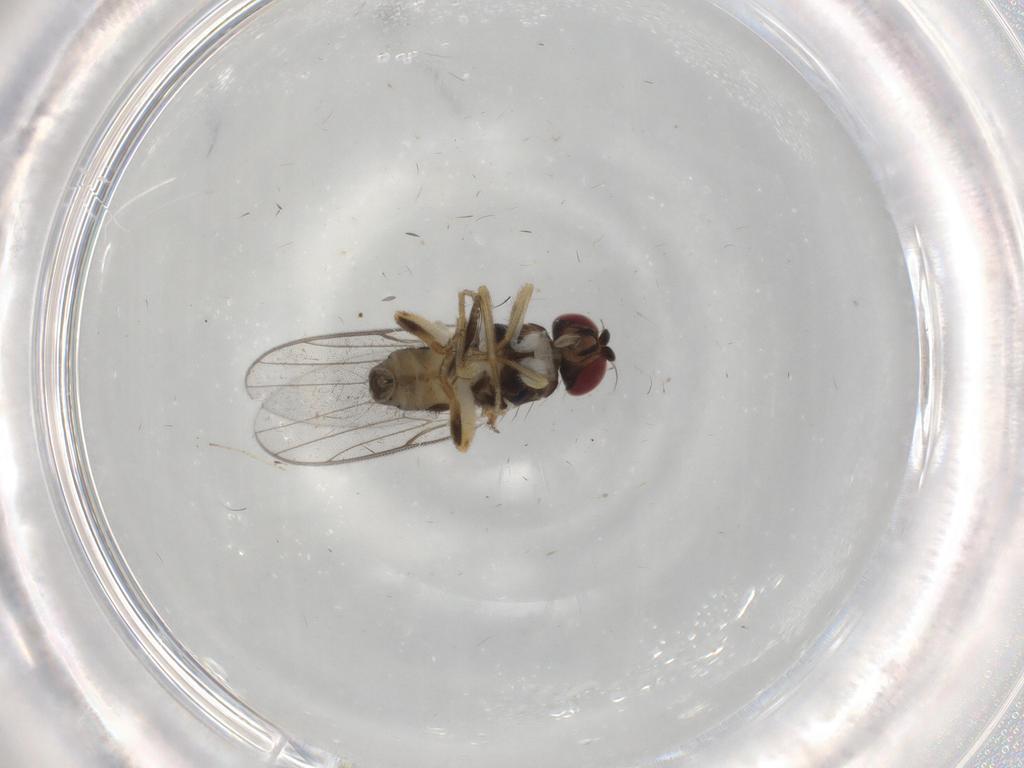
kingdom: Animalia
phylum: Arthropoda
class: Insecta
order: Diptera
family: Chloropidae
